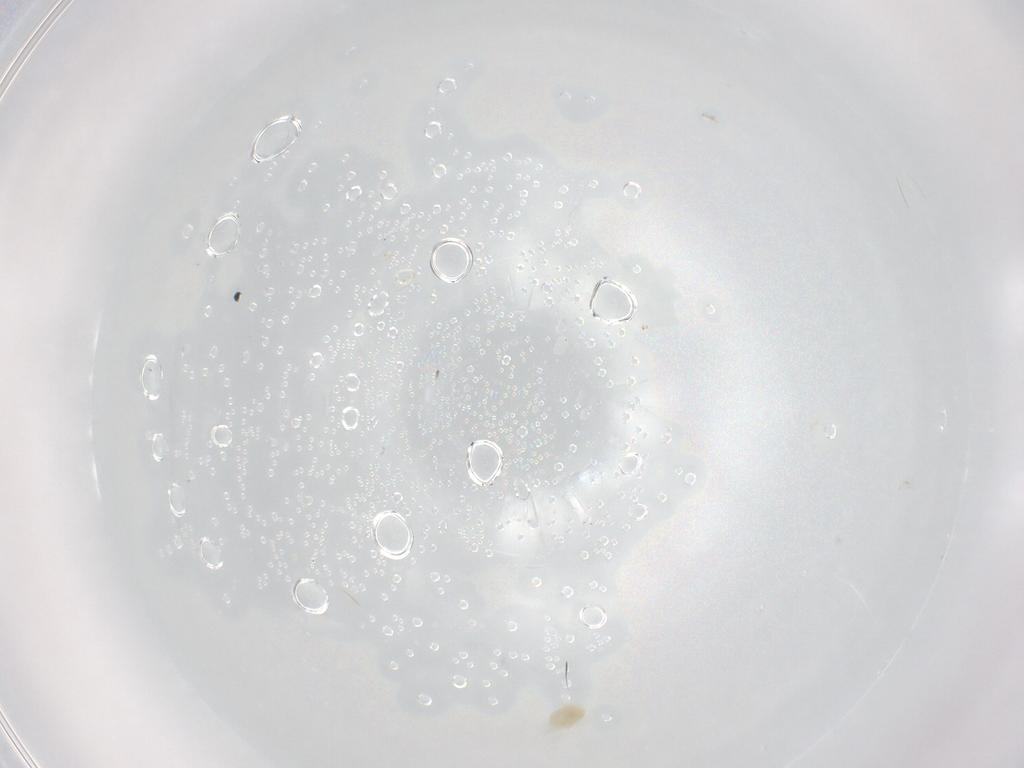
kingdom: Animalia
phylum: Arthropoda
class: Arachnida
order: Trombidiformes
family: Eupodidae
